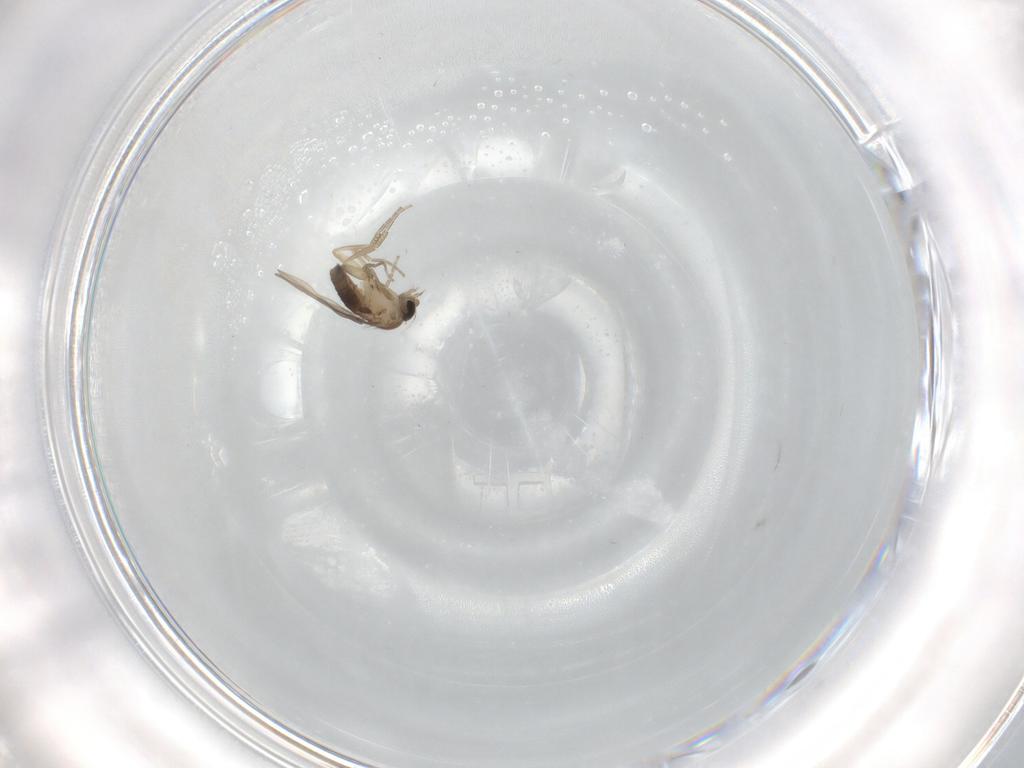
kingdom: Animalia
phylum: Arthropoda
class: Insecta
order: Diptera
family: Phoridae
